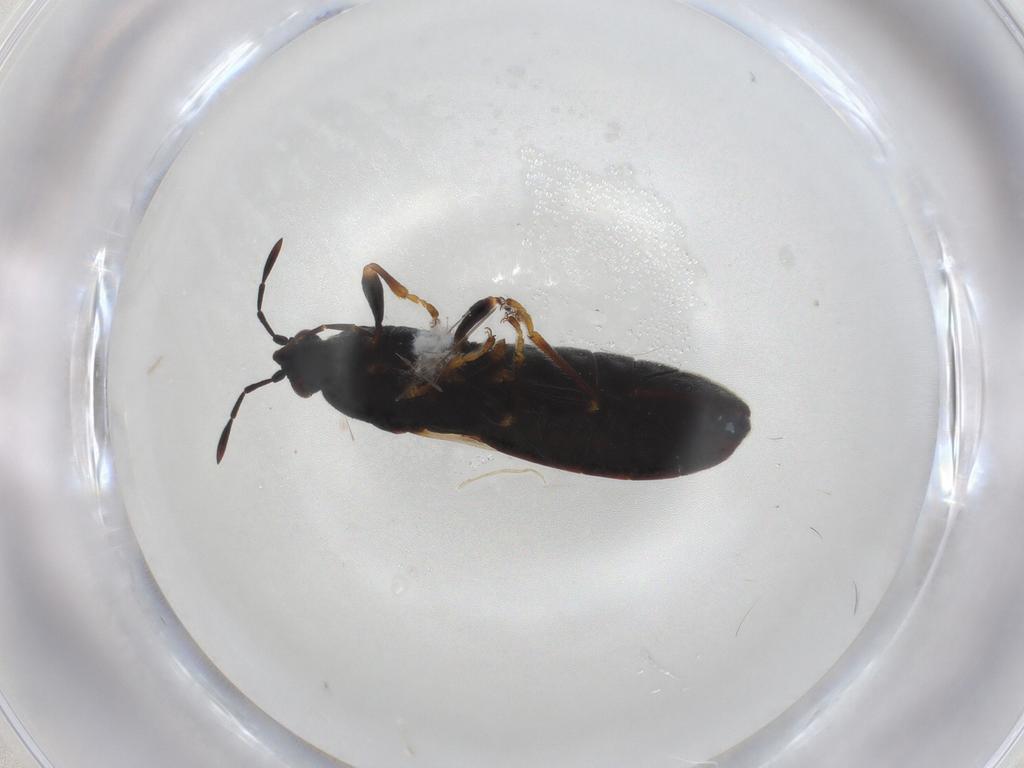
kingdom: Animalia
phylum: Arthropoda
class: Insecta
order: Hemiptera
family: Blissidae
